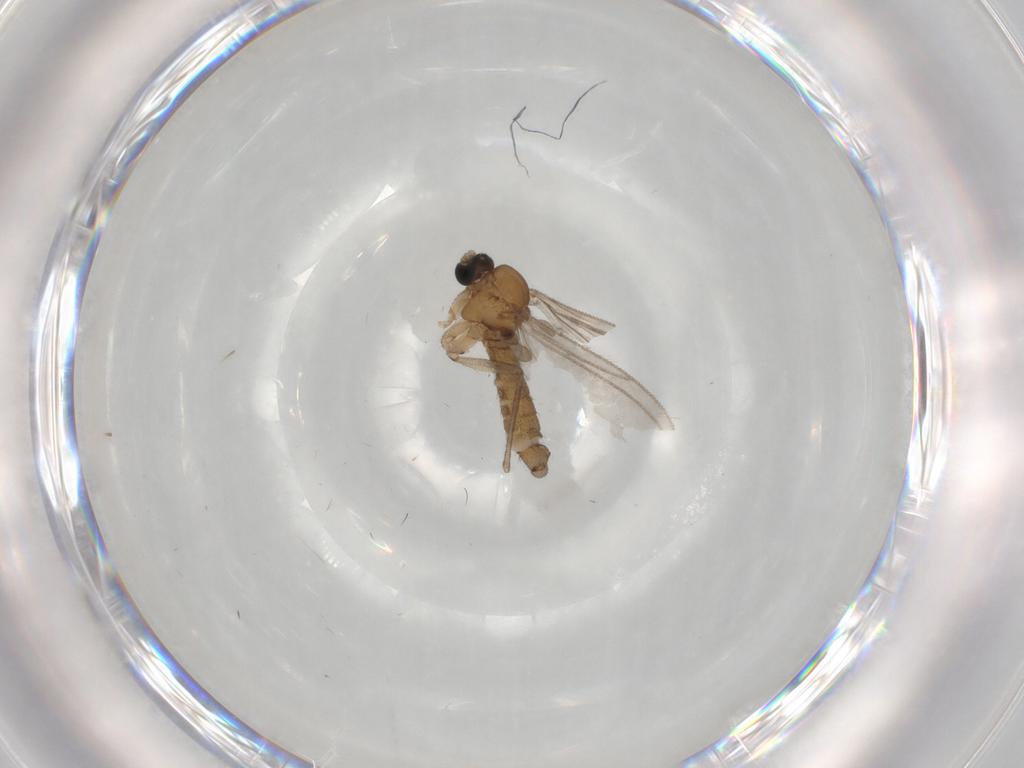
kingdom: Animalia
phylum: Arthropoda
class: Insecta
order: Diptera
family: Sciaridae
